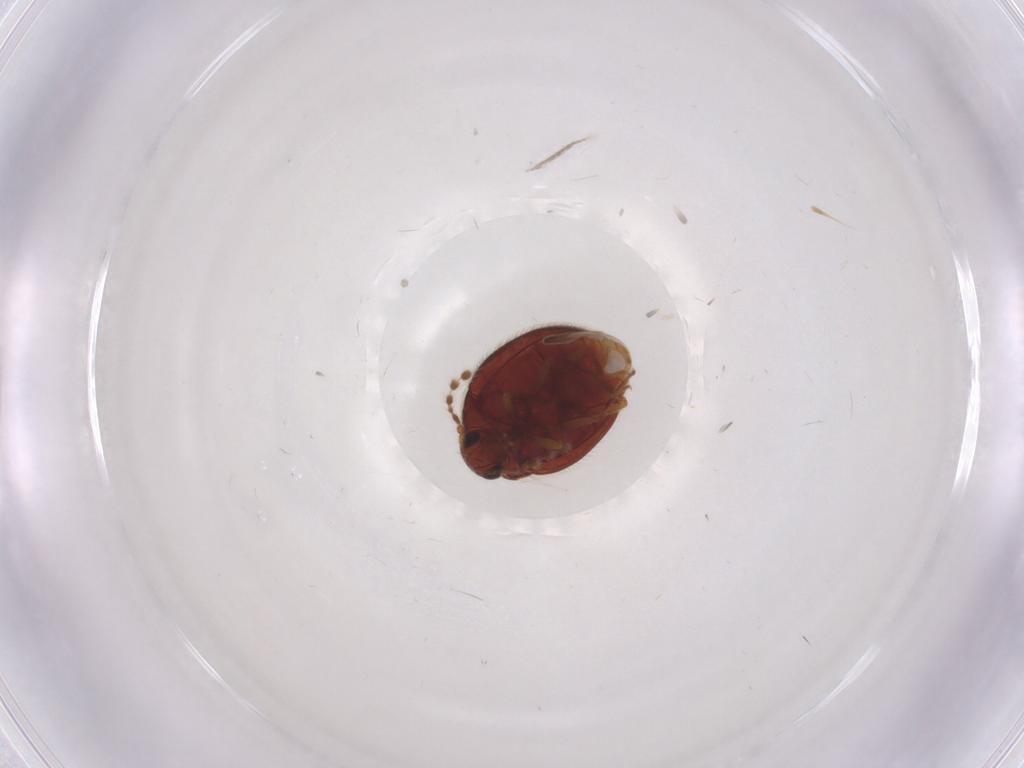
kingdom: Animalia
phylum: Arthropoda
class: Insecta
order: Coleoptera
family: Anamorphidae
